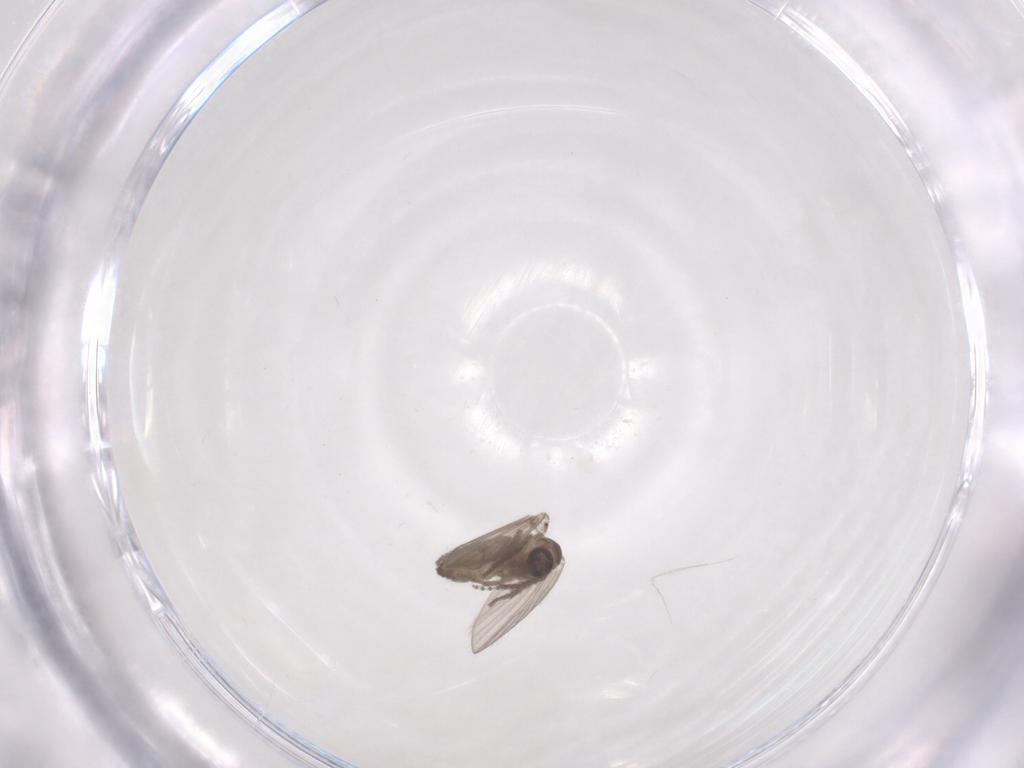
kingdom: Animalia
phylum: Arthropoda
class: Insecta
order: Diptera
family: Psychodidae
